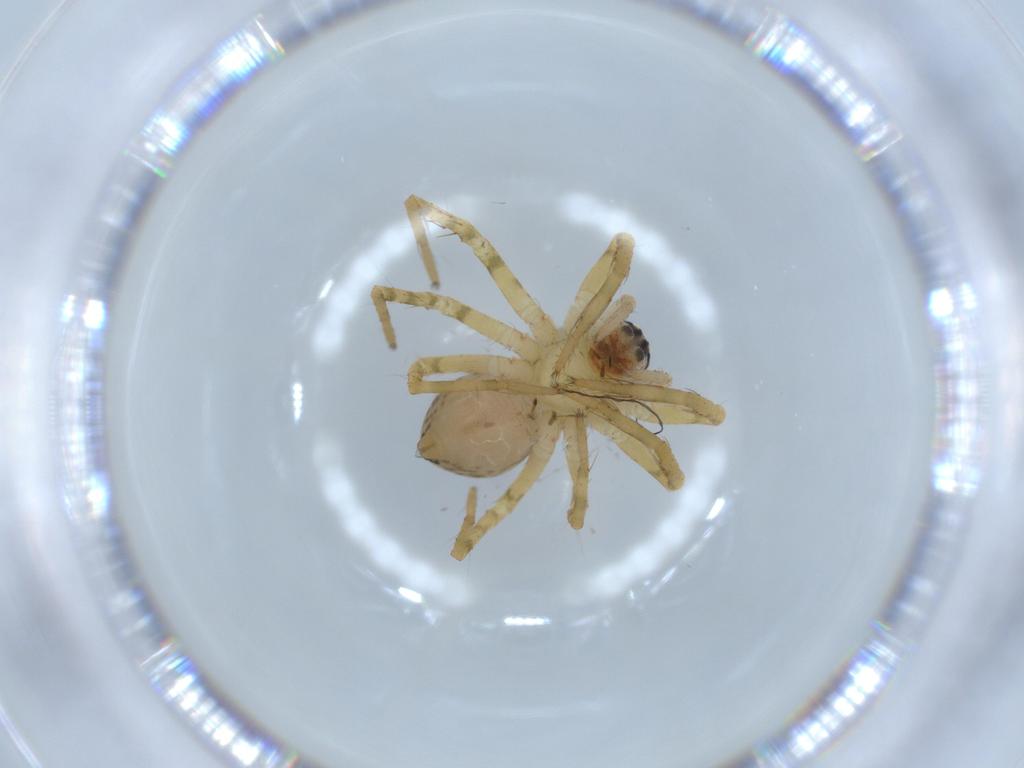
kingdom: Animalia
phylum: Arthropoda
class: Arachnida
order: Araneae
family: Ctenidae
